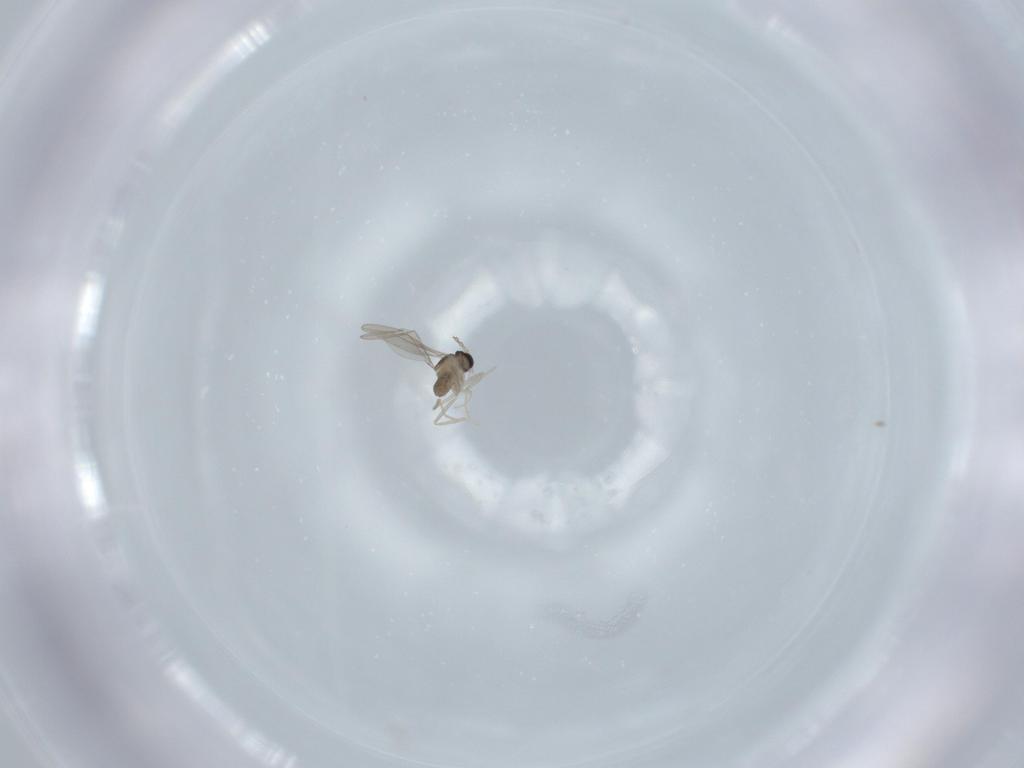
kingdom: Animalia
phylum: Arthropoda
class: Insecta
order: Diptera
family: Cecidomyiidae
